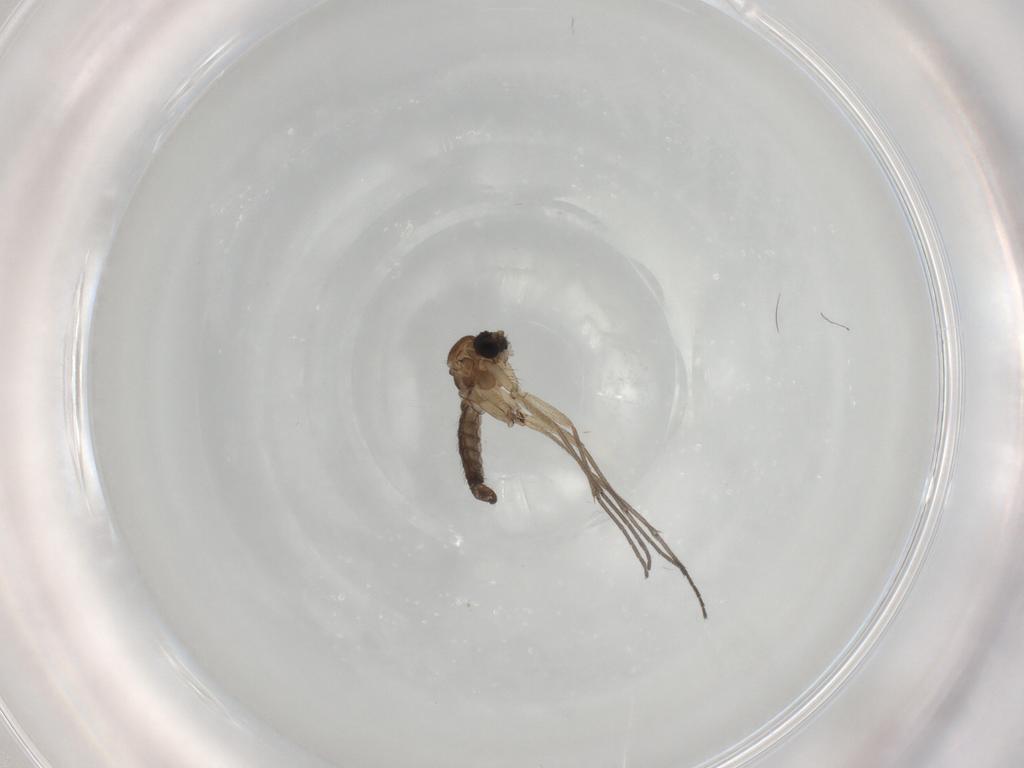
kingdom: Animalia
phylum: Arthropoda
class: Insecta
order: Diptera
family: Sciaridae
